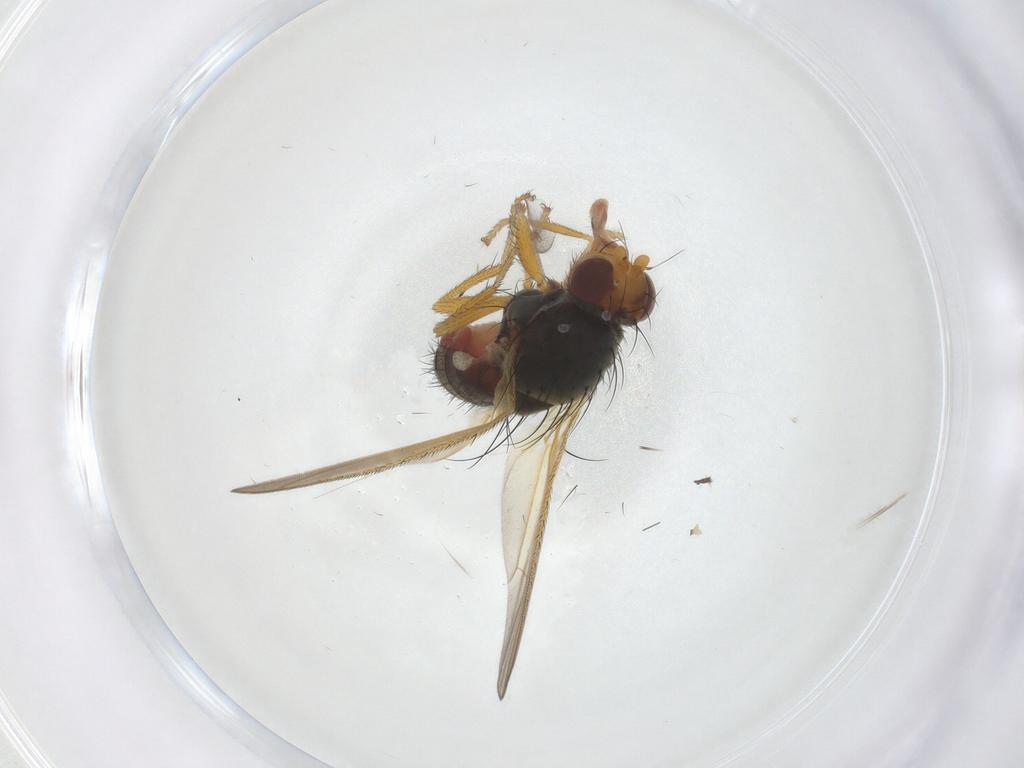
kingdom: Animalia
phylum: Arthropoda
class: Insecta
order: Diptera
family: Sciaridae
